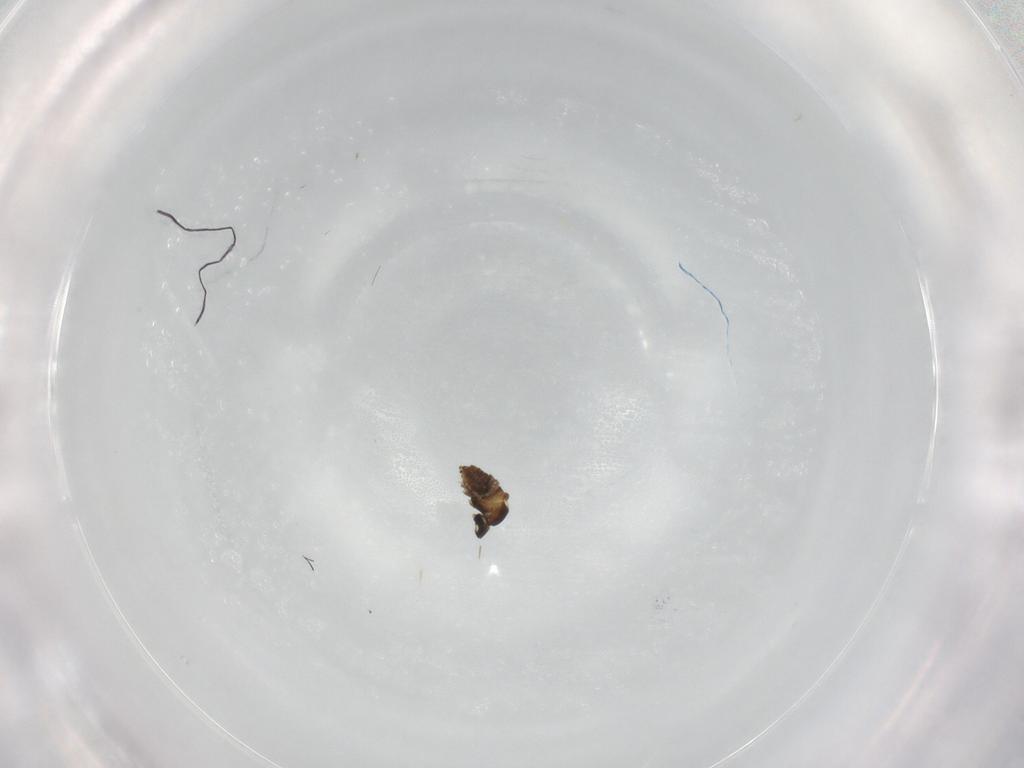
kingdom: Animalia
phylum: Arthropoda
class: Insecta
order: Diptera
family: Cecidomyiidae
